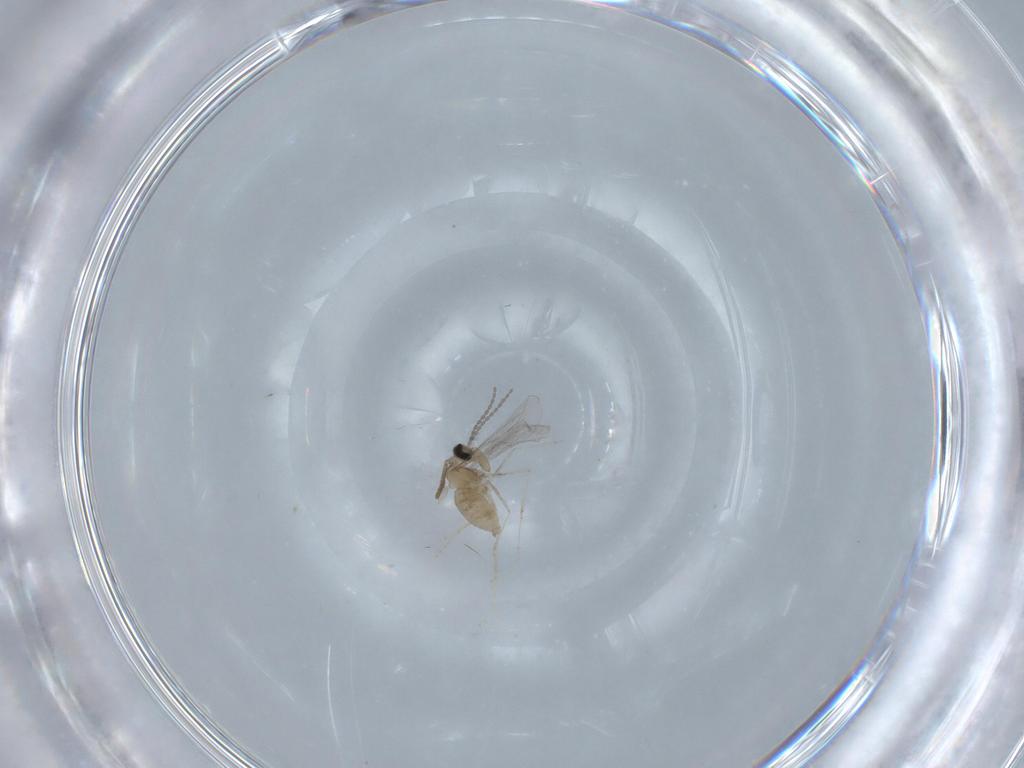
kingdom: Animalia
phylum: Arthropoda
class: Insecta
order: Diptera
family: Cecidomyiidae
